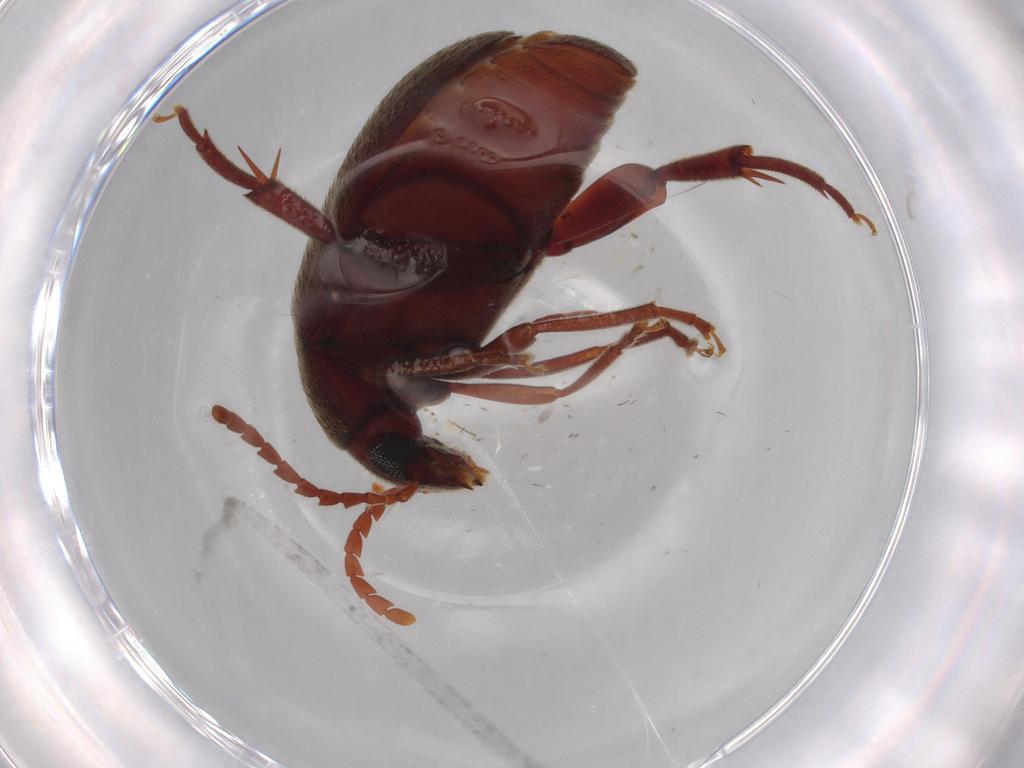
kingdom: Animalia
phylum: Arthropoda
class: Insecta
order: Coleoptera
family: Chrysomelidae
